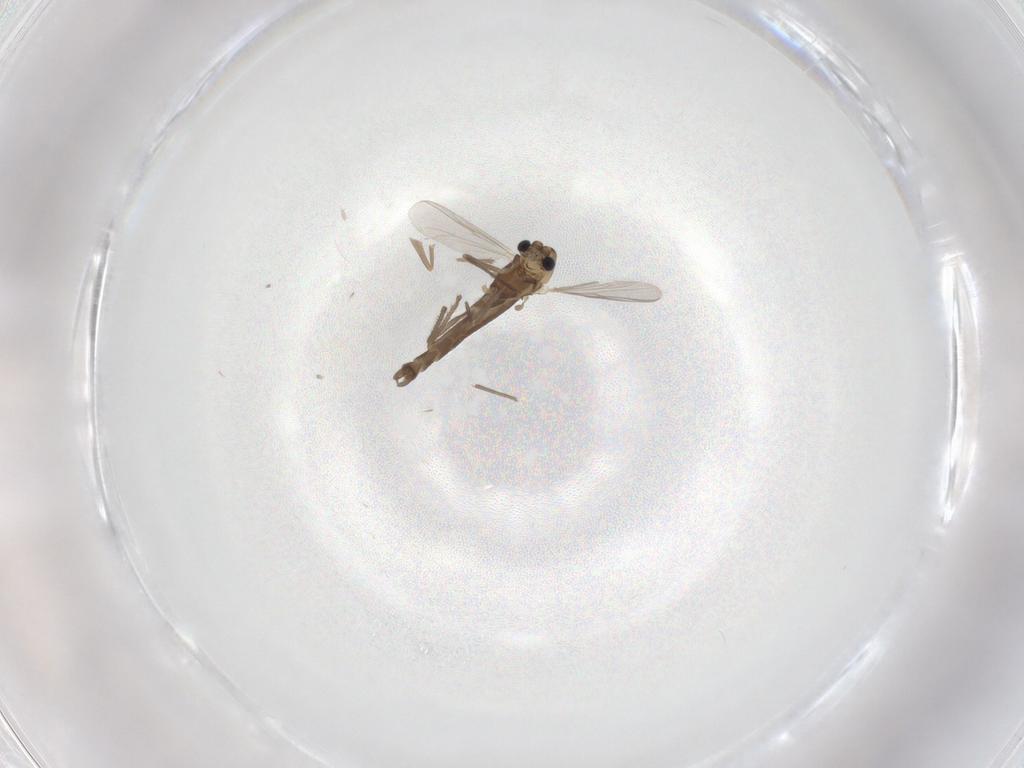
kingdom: Animalia
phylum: Arthropoda
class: Insecta
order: Diptera
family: Chironomidae
